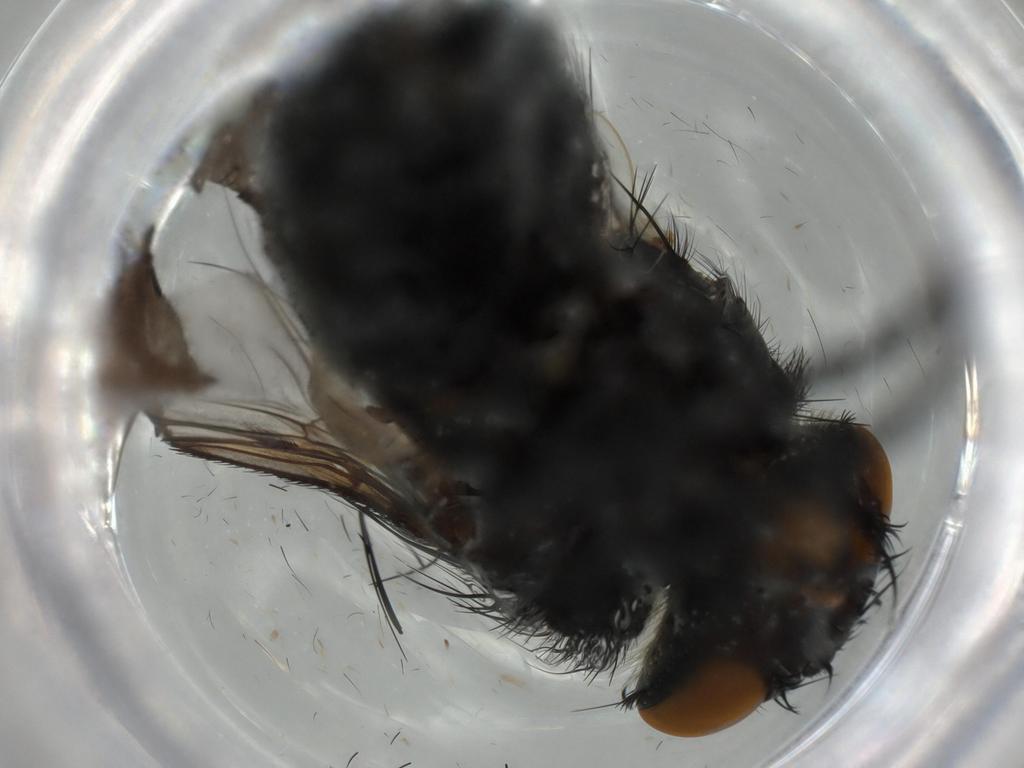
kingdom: Animalia
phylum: Arthropoda
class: Insecta
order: Diptera
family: Tachinidae
